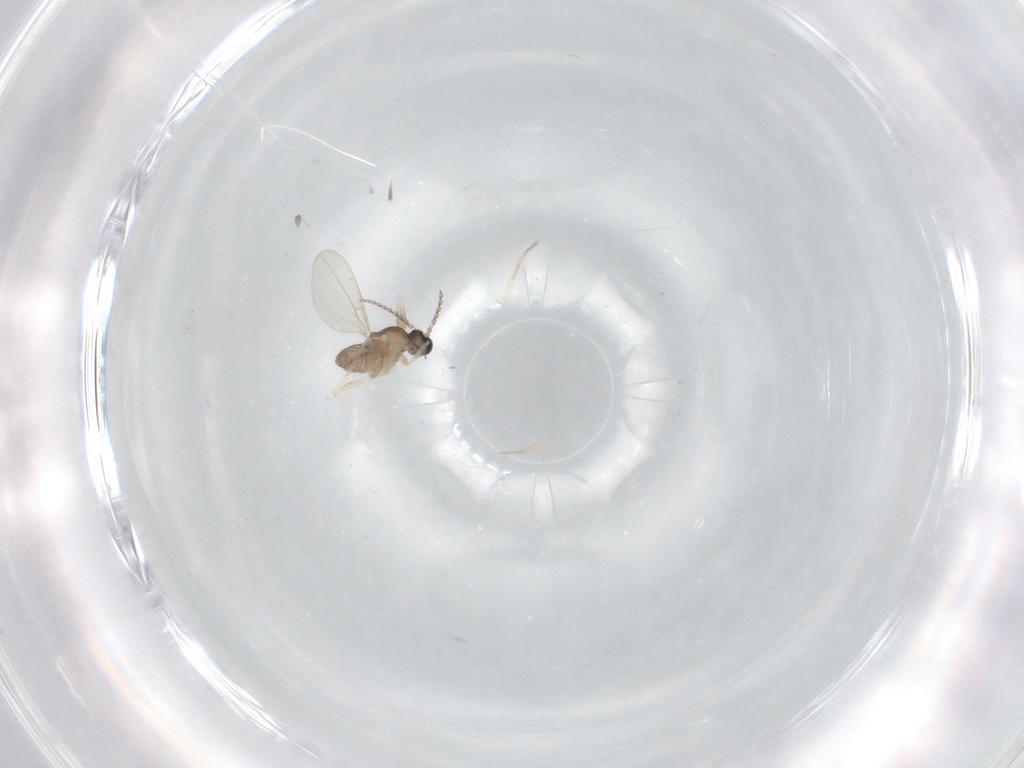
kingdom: Animalia
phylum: Arthropoda
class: Insecta
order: Diptera
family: Cecidomyiidae
